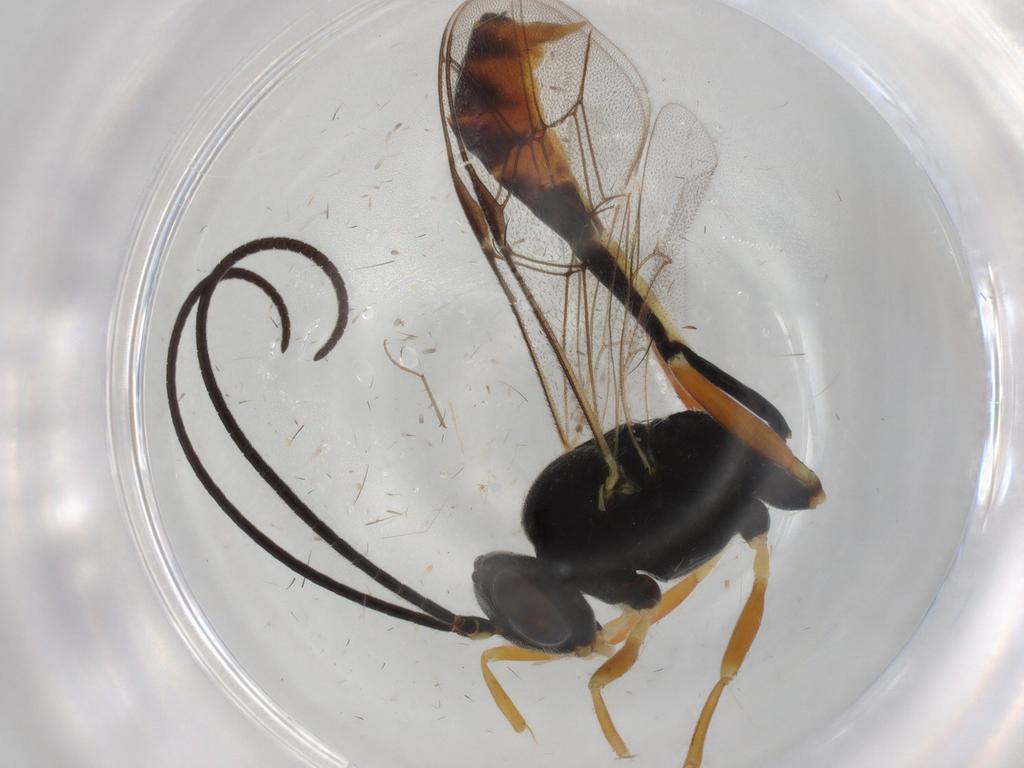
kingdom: Animalia
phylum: Arthropoda
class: Insecta
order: Hymenoptera
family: Ichneumonidae
